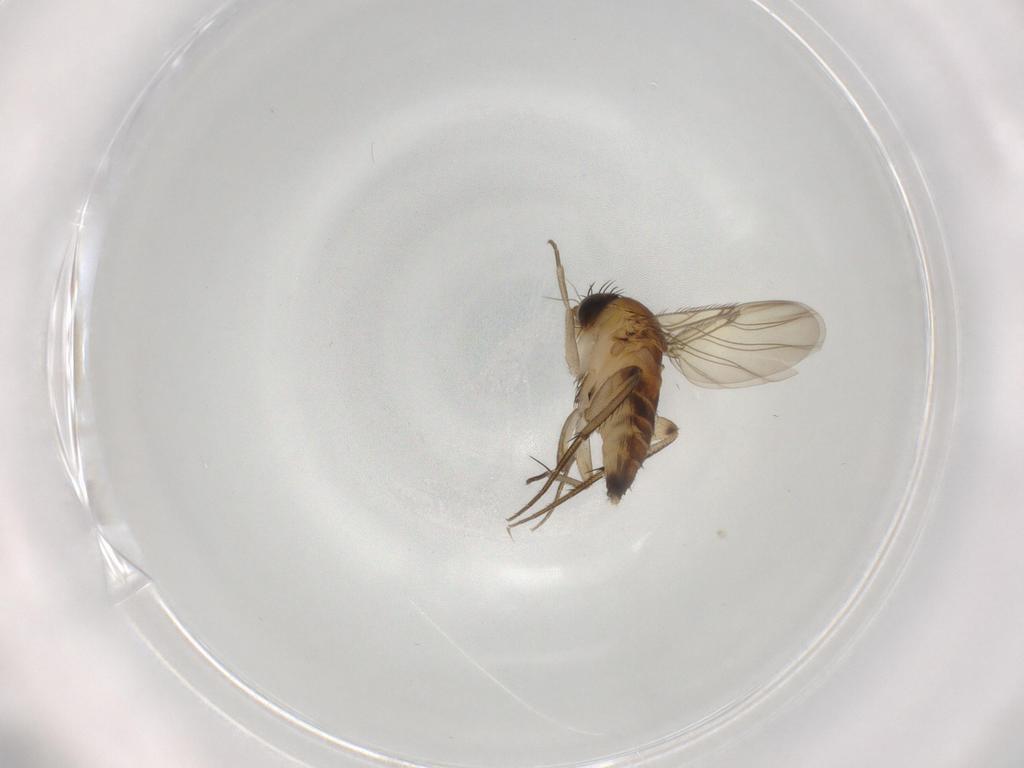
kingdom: Animalia
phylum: Arthropoda
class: Insecta
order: Diptera
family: Phoridae
